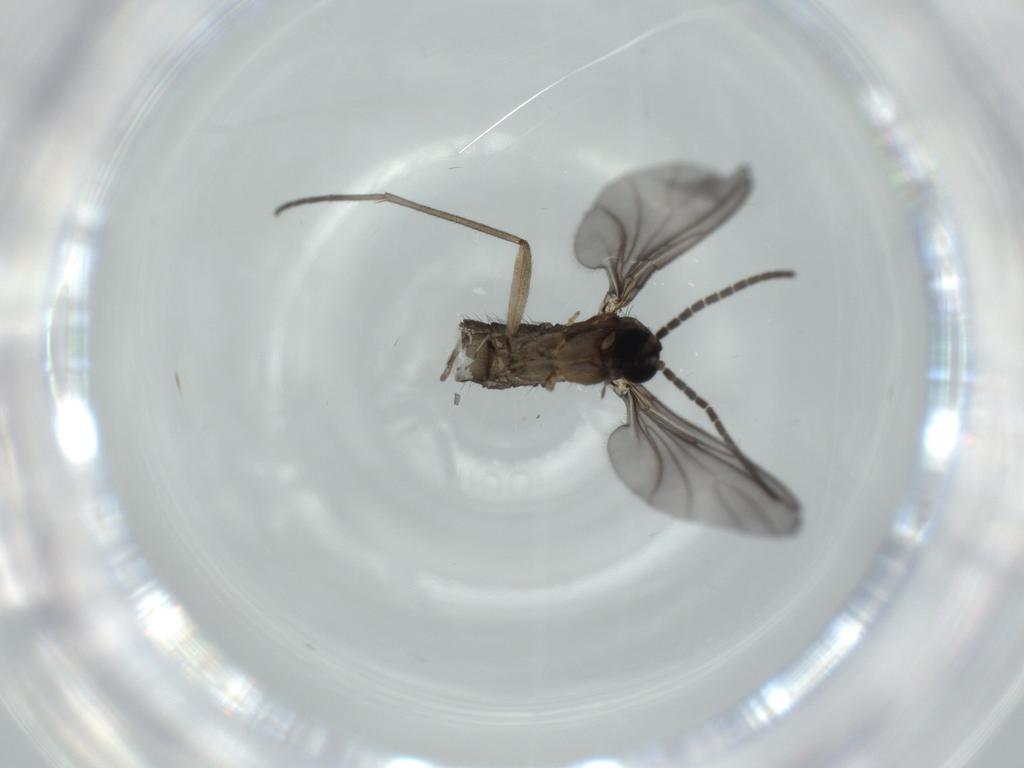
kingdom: Animalia
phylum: Arthropoda
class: Insecta
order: Diptera
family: Sciaridae
